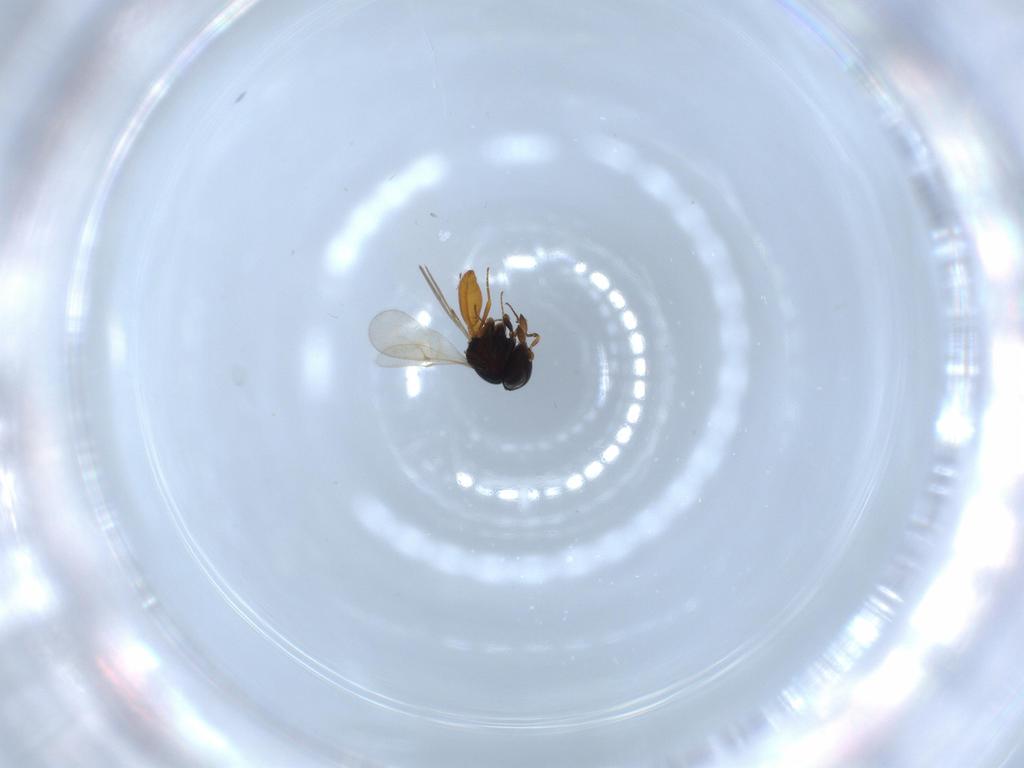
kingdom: Animalia
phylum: Arthropoda
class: Insecta
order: Hymenoptera
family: Scelionidae
